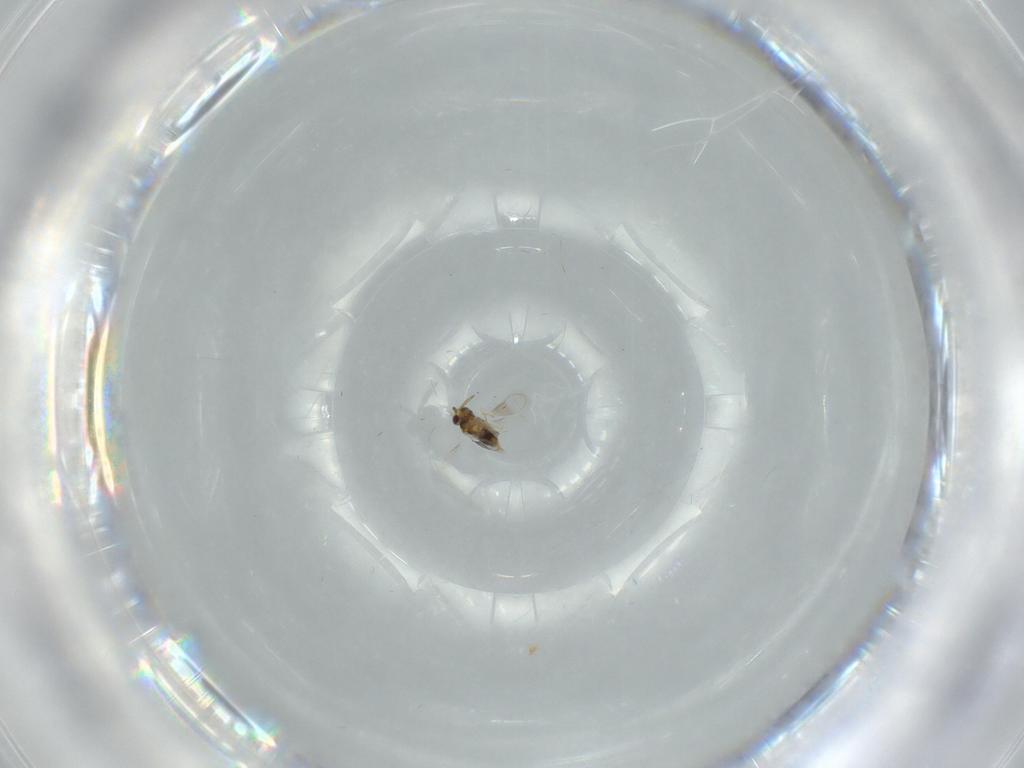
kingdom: Animalia
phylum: Arthropoda
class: Insecta
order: Hymenoptera
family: Aphelinidae
